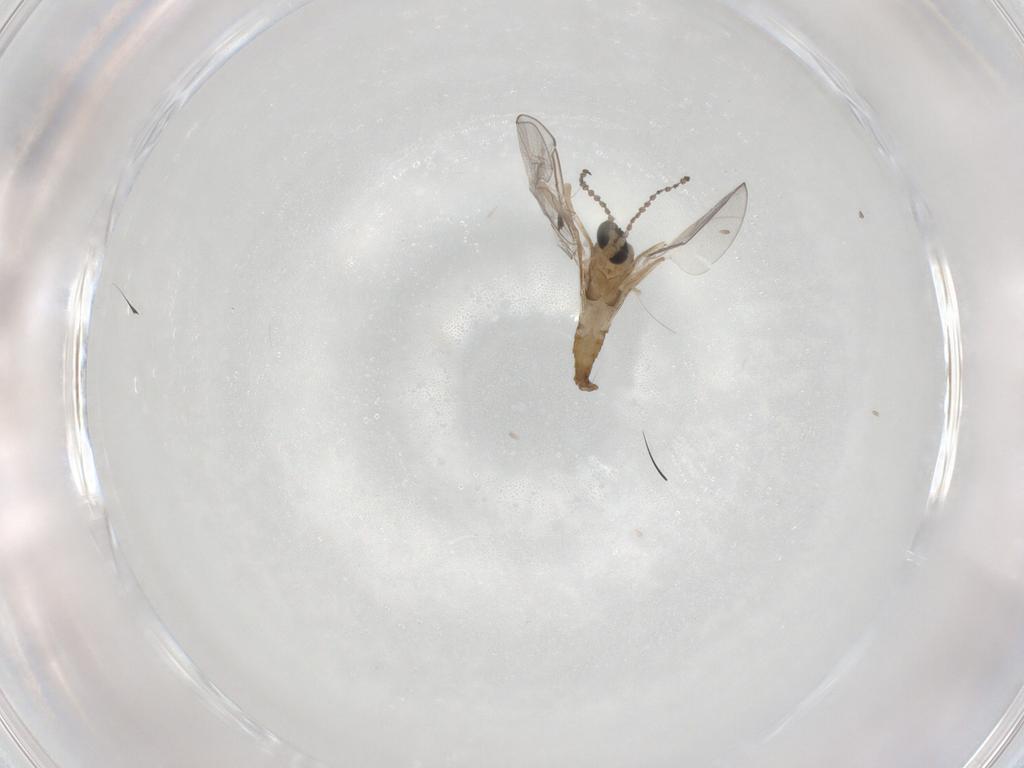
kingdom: Animalia
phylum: Arthropoda
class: Insecta
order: Diptera
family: Cecidomyiidae
